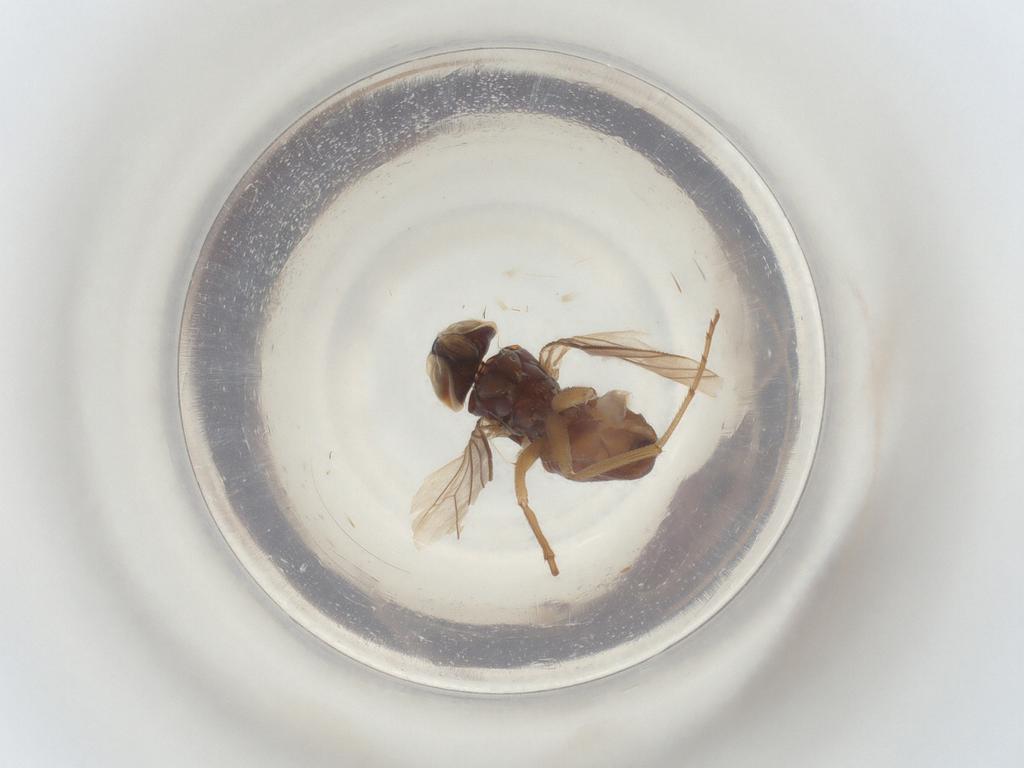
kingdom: Animalia
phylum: Arthropoda
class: Insecta
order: Diptera
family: Dolichopodidae
